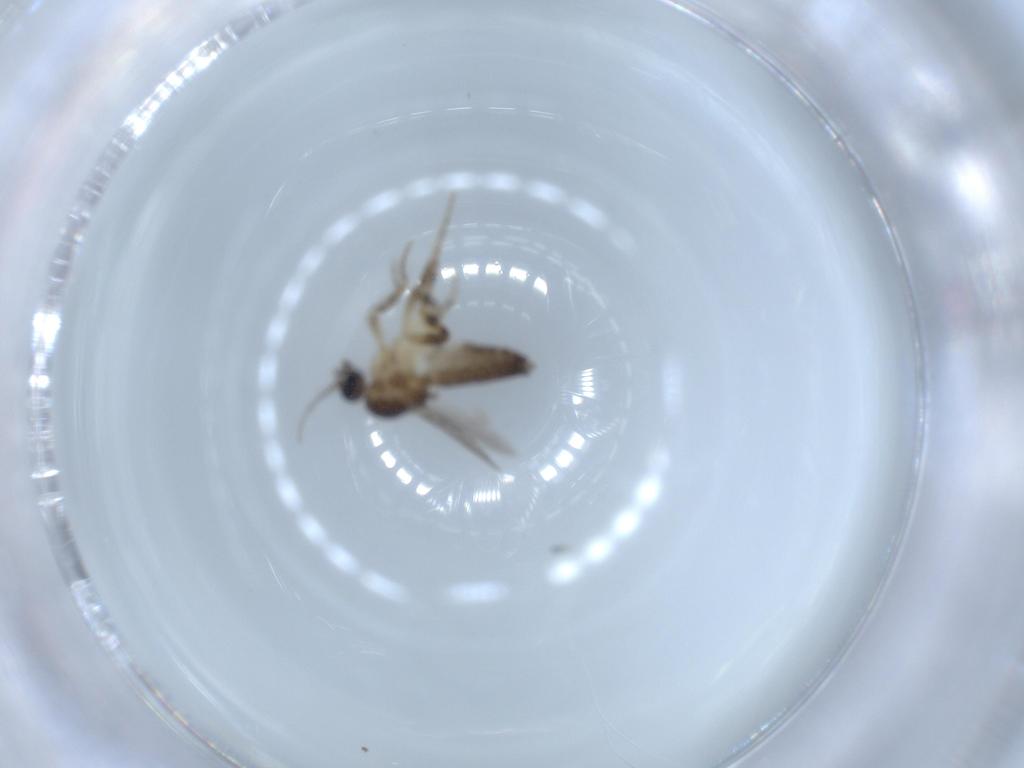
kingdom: Animalia
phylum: Arthropoda
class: Insecta
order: Diptera
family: Ceratopogonidae
